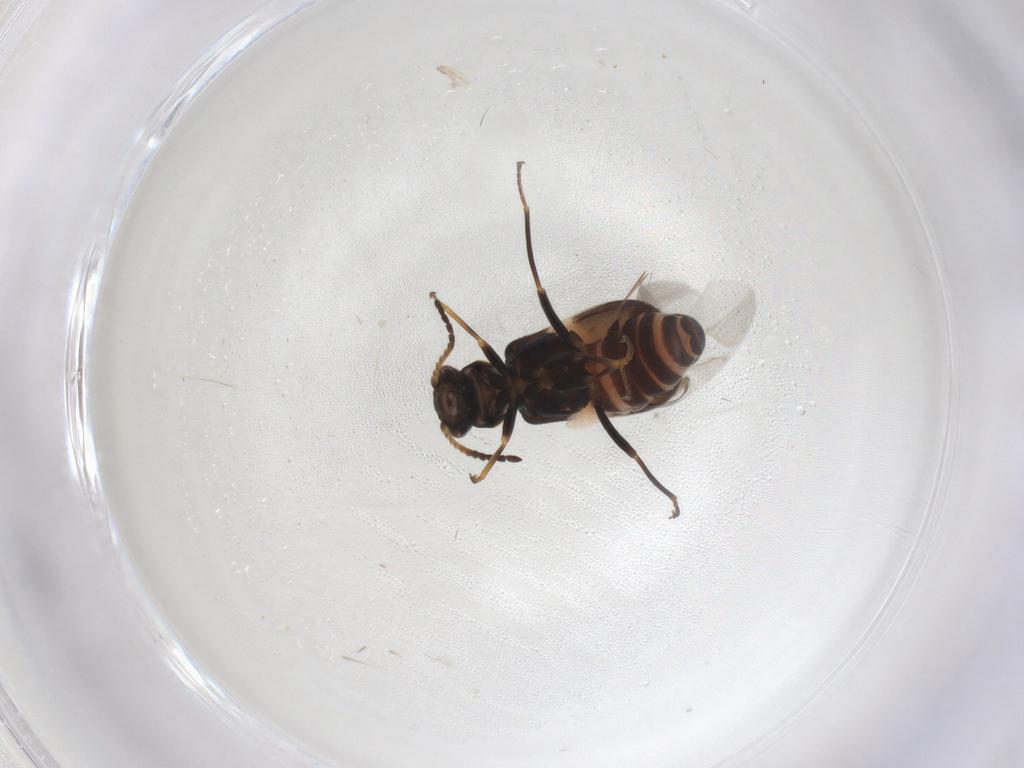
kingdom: Animalia
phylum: Arthropoda
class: Insecta
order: Coleoptera
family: Melyridae
